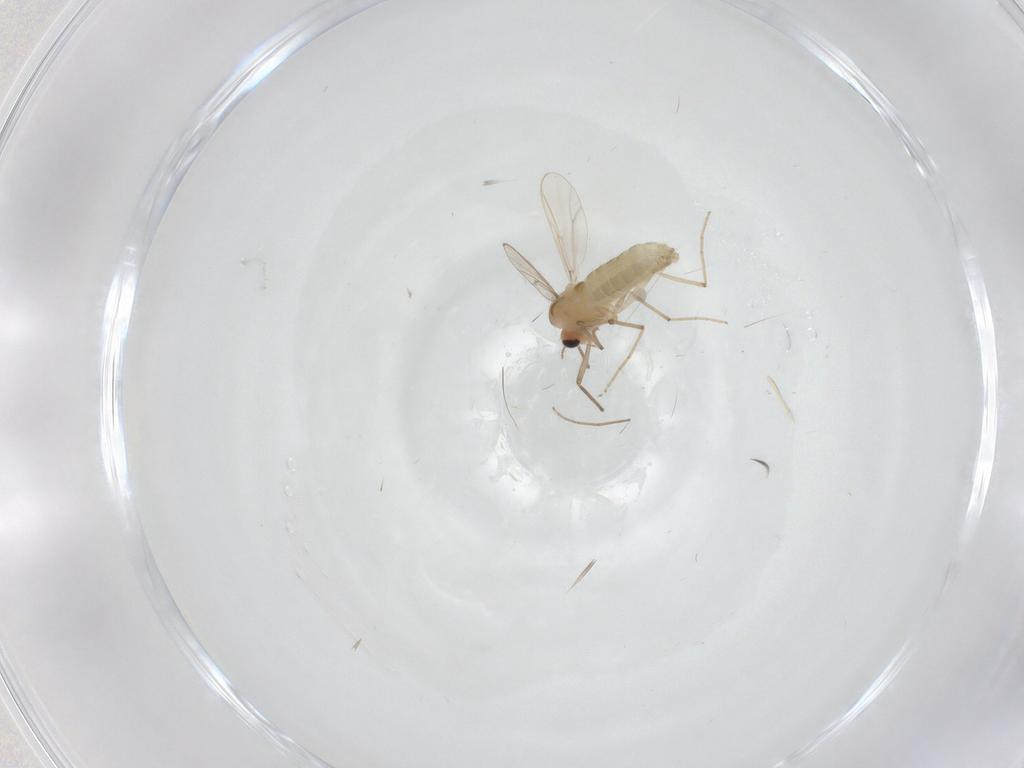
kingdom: Animalia
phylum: Arthropoda
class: Insecta
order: Diptera
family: Chironomidae
